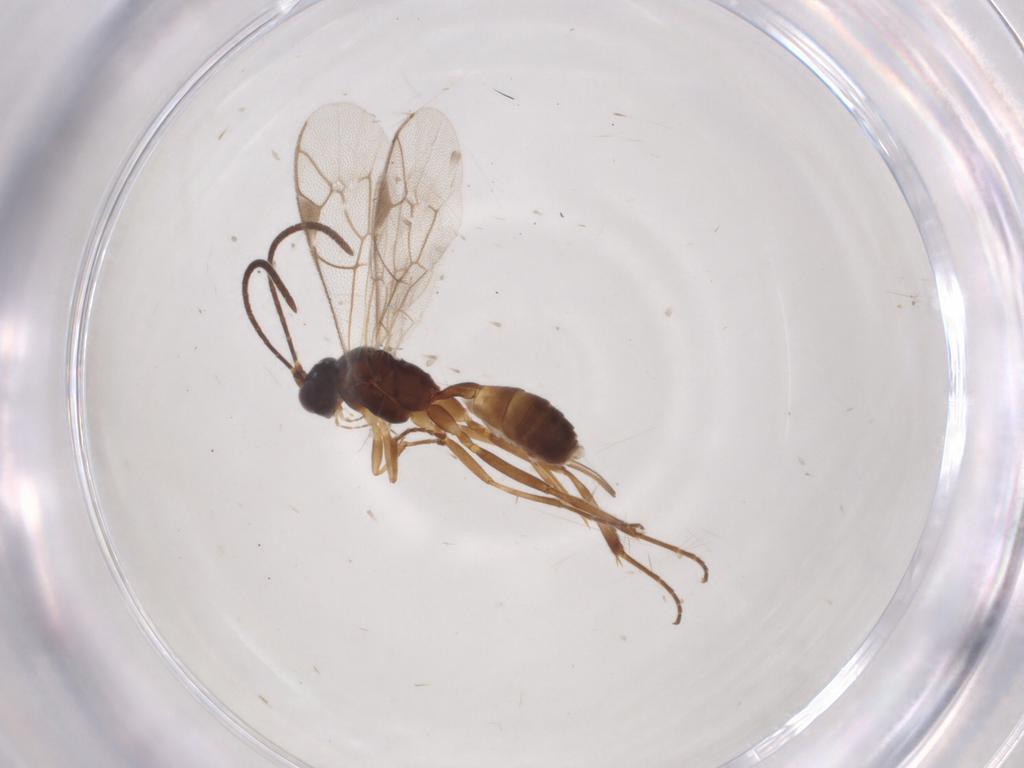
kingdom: Animalia
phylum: Arthropoda
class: Insecta
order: Hymenoptera
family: Ichneumonidae
